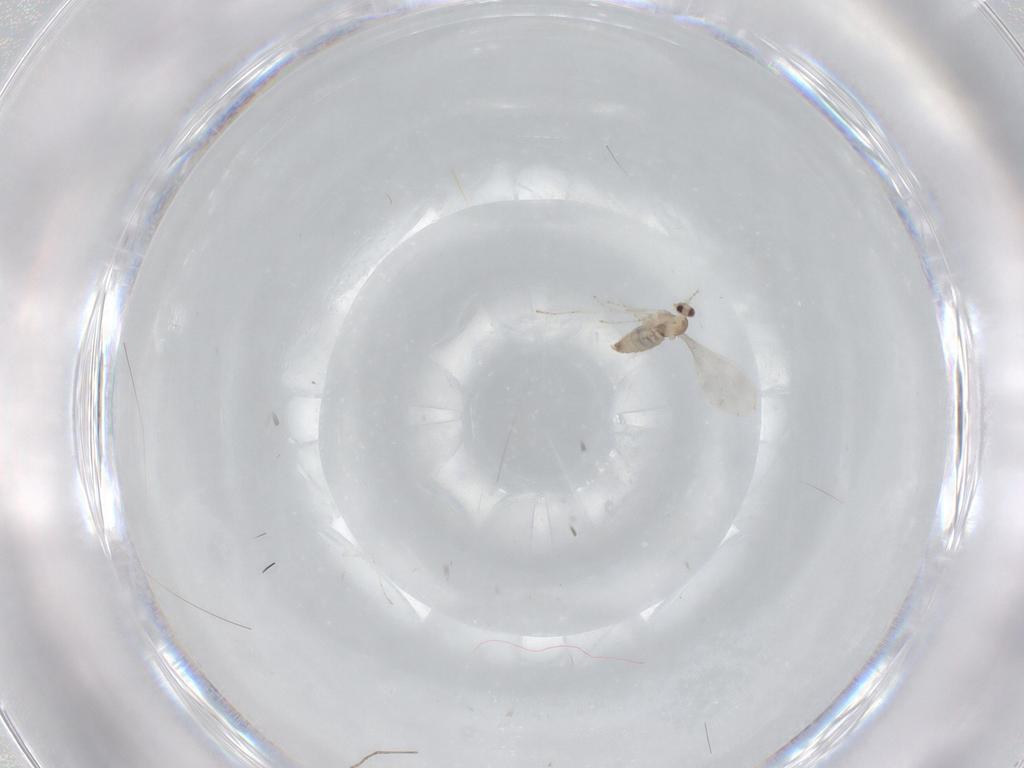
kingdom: Animalia
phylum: Arthropoda
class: Insecta
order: Diptera
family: Cecidomyiidae
